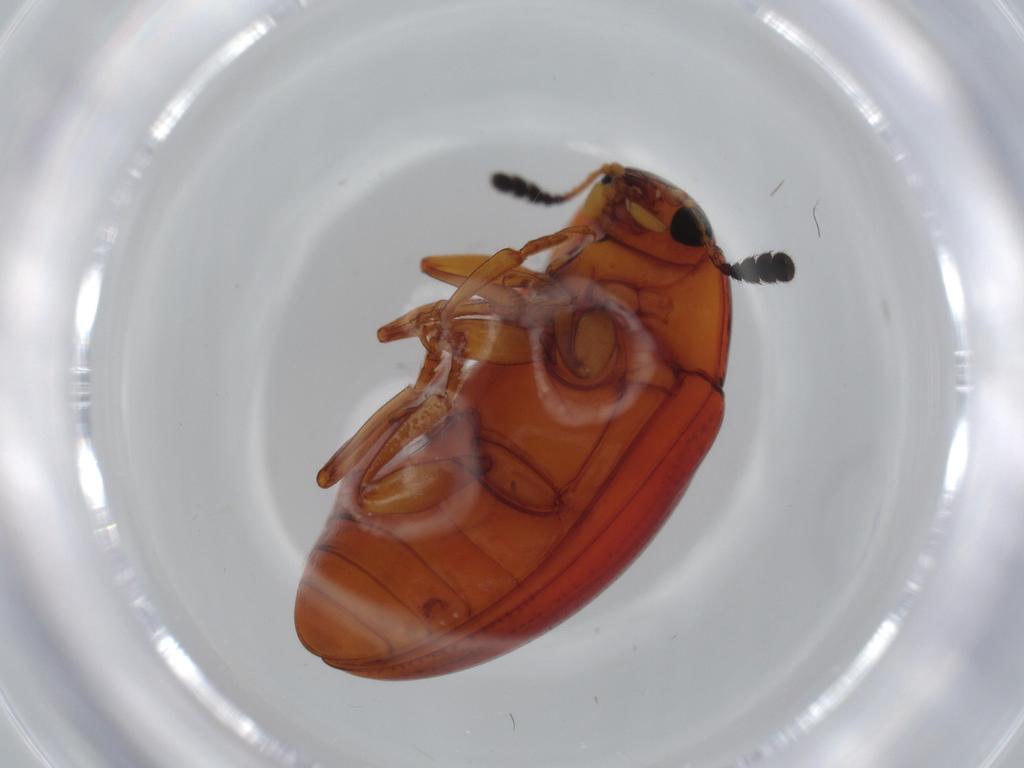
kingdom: Animalia
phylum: Arthropoda
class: Insecta
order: Coleoptera
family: Erotylidae
